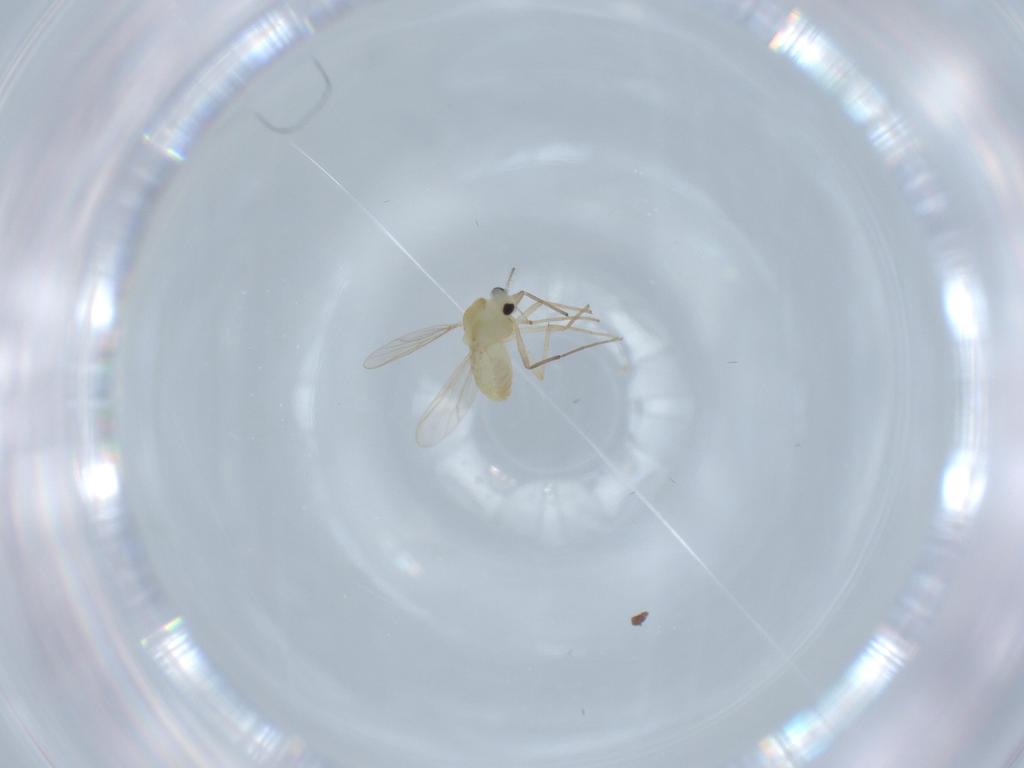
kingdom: Animalia
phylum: Arthropoda
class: Insecta
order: Diptera
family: Chironomidae
